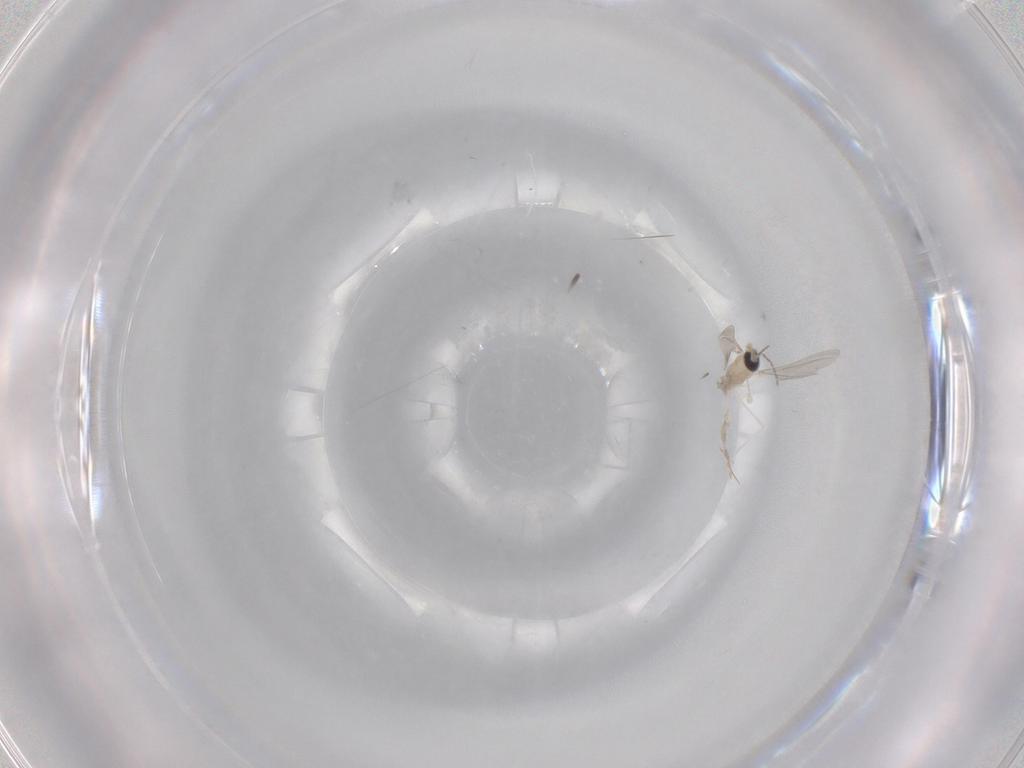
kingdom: Animalia
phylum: Arthropoda
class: Insecta
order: Diptera
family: Cecidomyiidae
